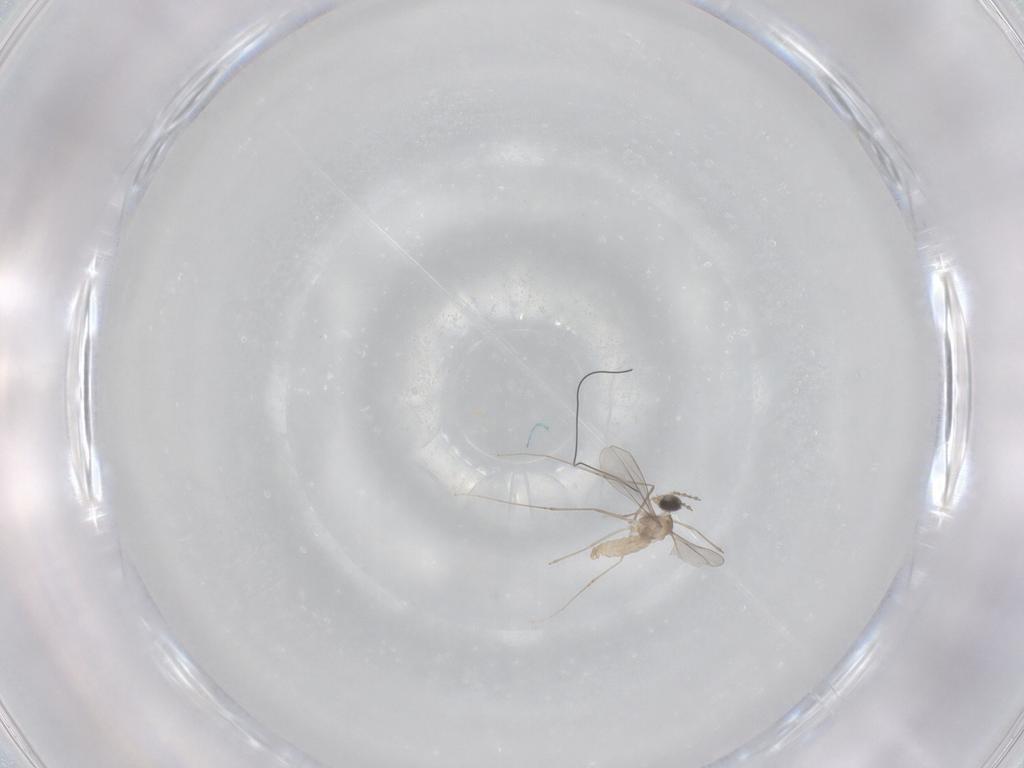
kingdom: Animalia
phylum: Arthropoda
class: Insecta
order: Diptera
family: Cecidomyiidae
